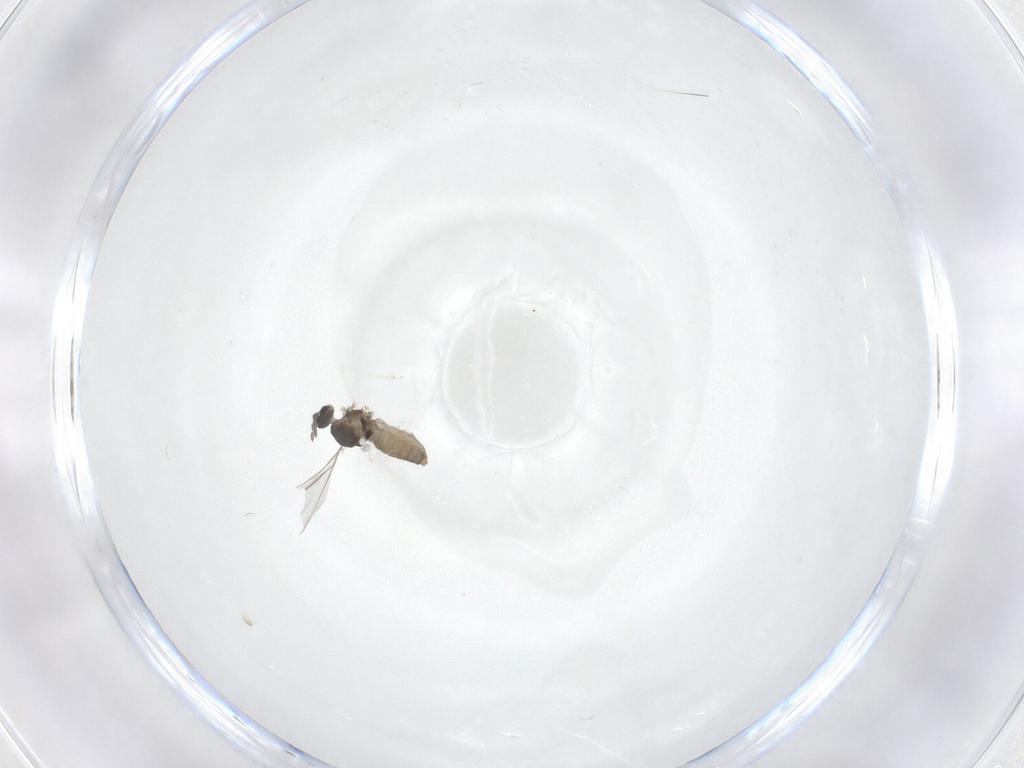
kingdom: Animalia
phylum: Arthropoda
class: Insecta
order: Diptera
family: Cecidomyiidae
